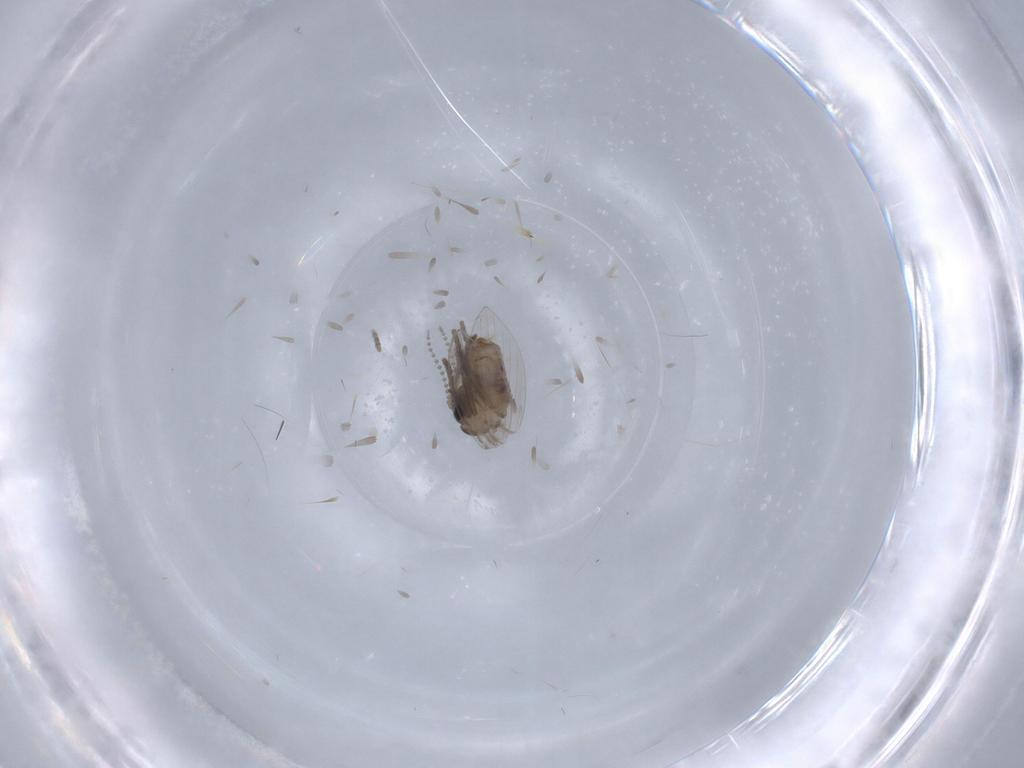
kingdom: Animalia
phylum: Arthropoda
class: Insecta
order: Diptera
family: Psychodidae
